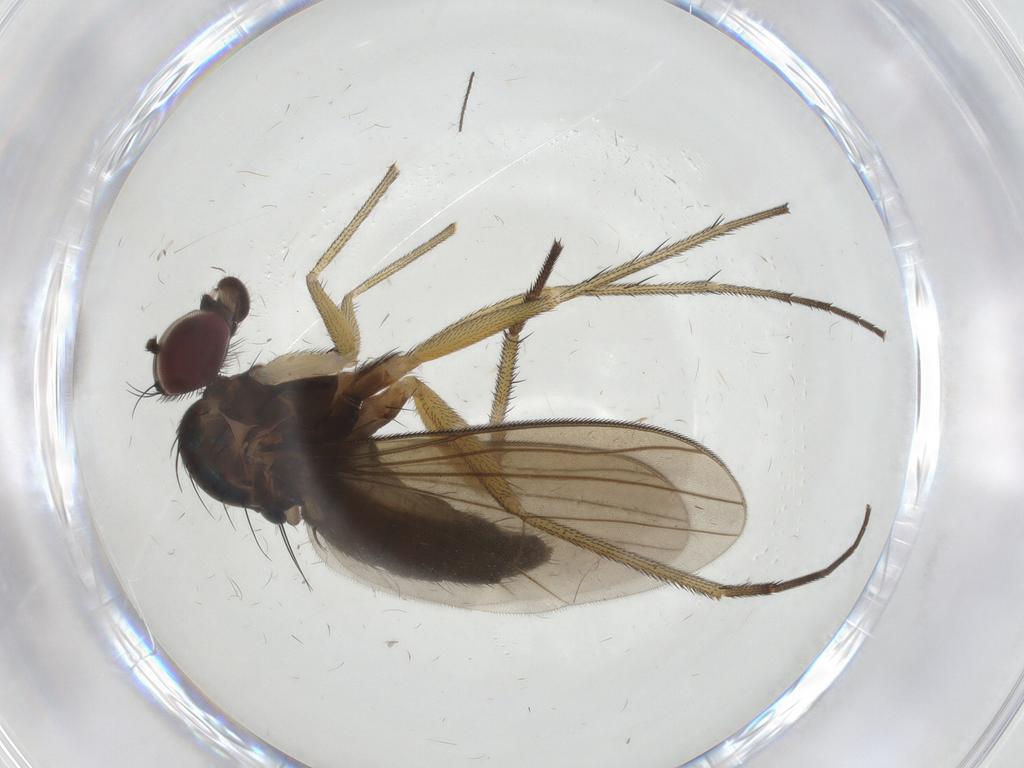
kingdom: Animalia
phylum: Arthropoda
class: Insecta
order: Diptera
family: Dolichopodidae
